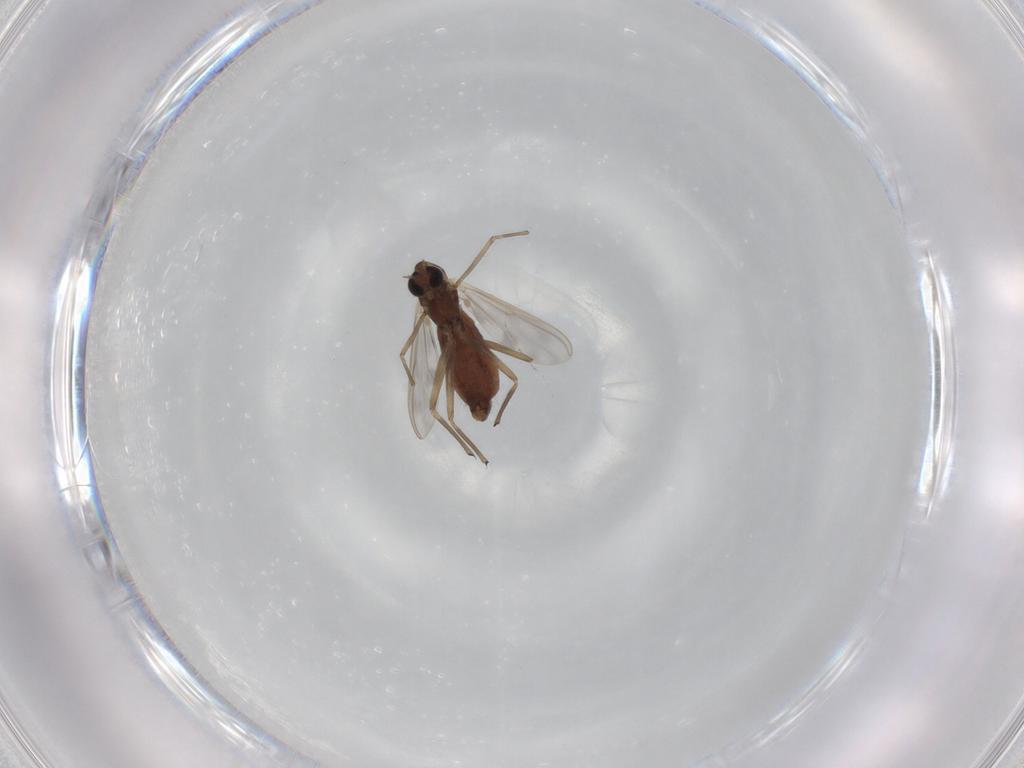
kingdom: Animalia
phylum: Arthropoda
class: Insecta
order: Diptera
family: Chironomidae
